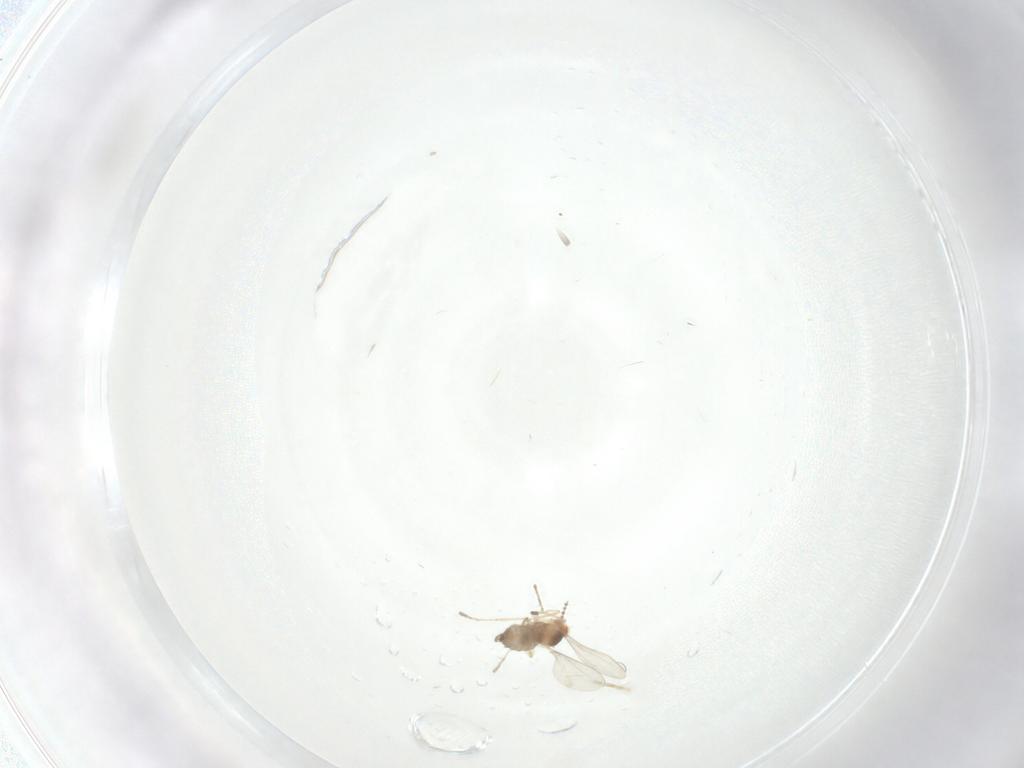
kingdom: Animalia
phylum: Arthropoda
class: Insecta
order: Diptera
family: Cecidomyiidae
